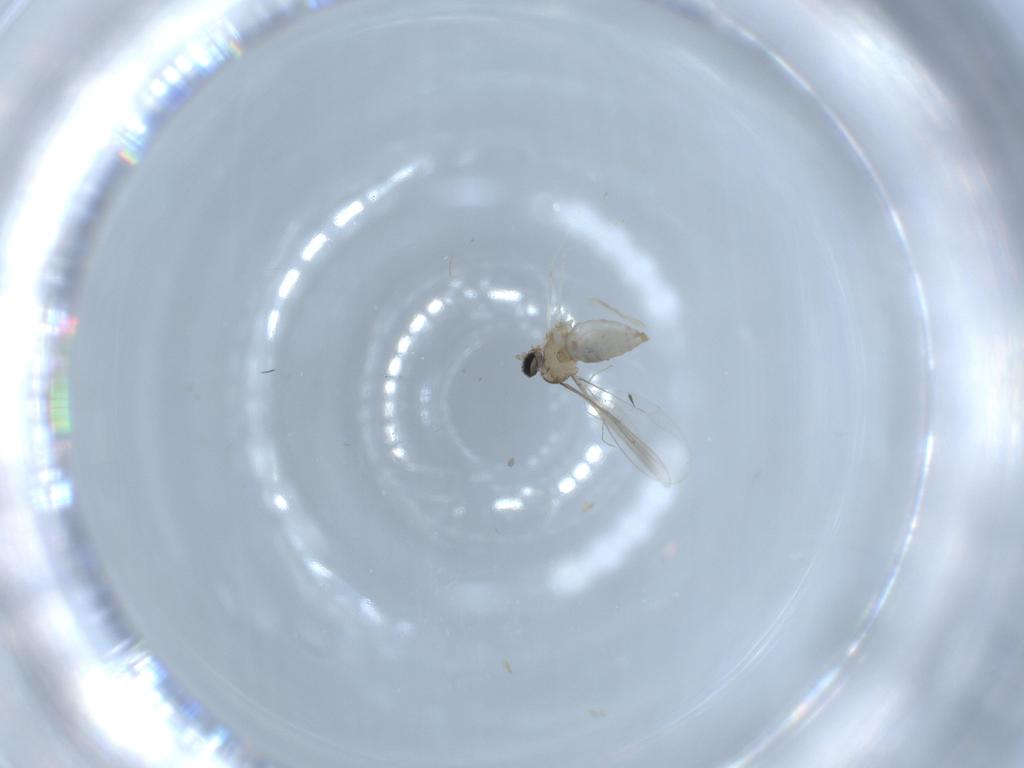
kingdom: Animalia
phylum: Arthropoda
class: Insecta
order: Diptera
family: Cecidomyiidae
